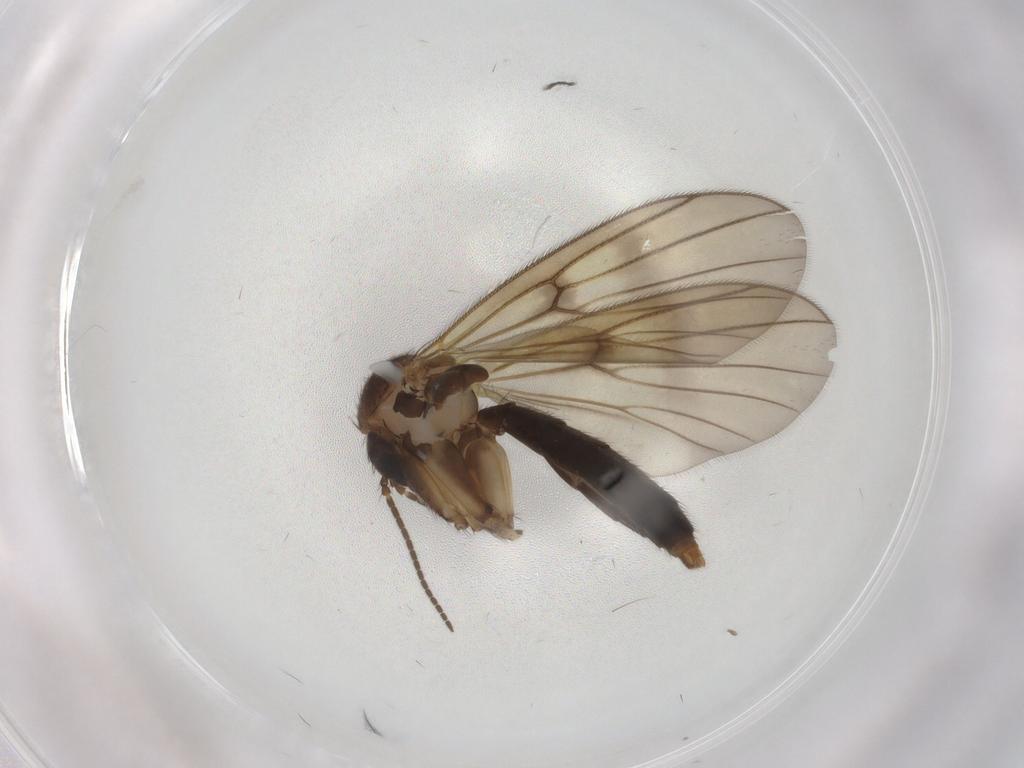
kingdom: Animalia
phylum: Arthropoda
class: Insecta
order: Diptera
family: Mycetophilidae
